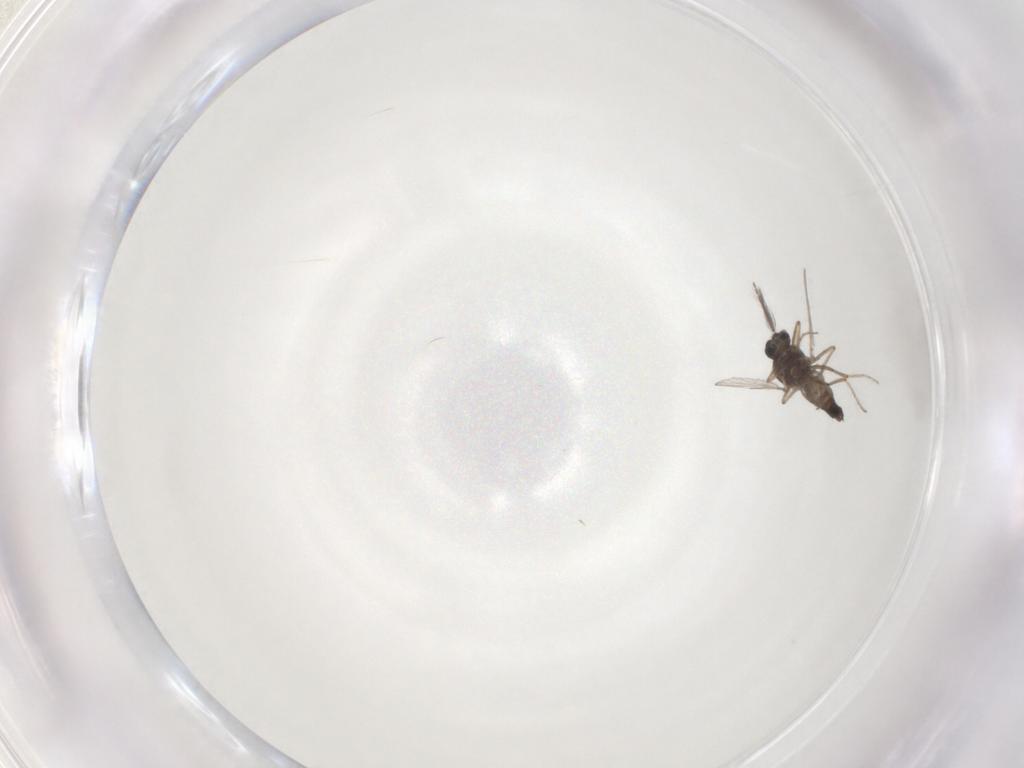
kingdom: Animalia
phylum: Arthropoda
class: Insecta
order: Diptera
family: Ceratopogonidae
